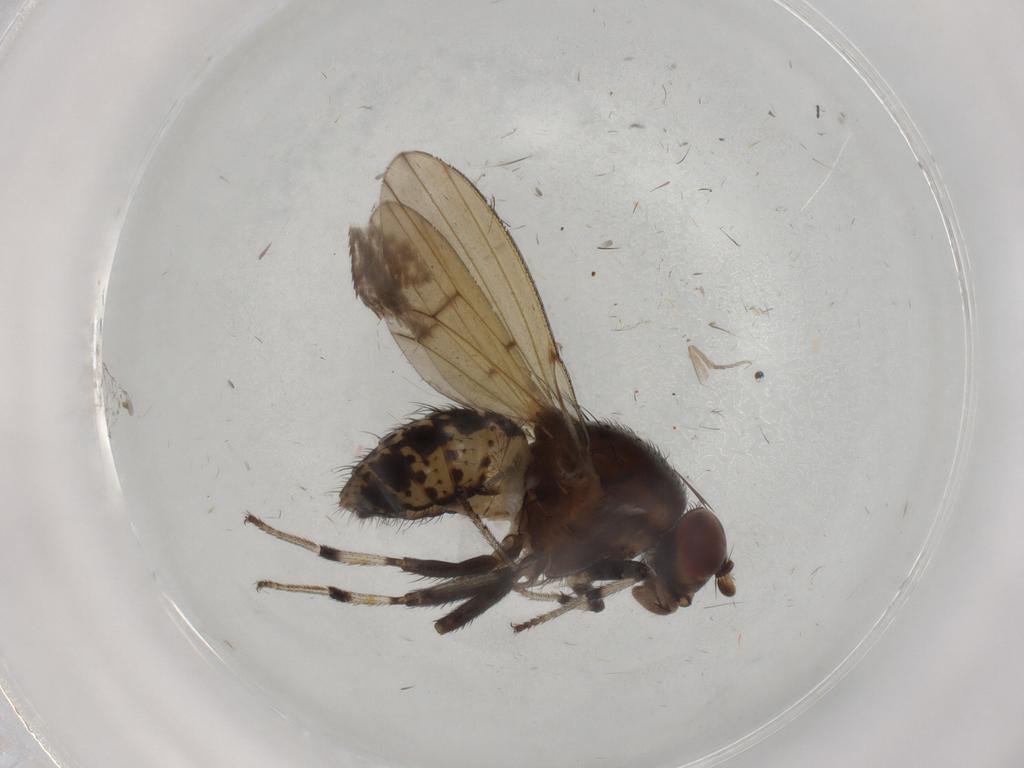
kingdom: Animalia
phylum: Arthropoda
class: Insecta
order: Diptera
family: Lauxaniidae
